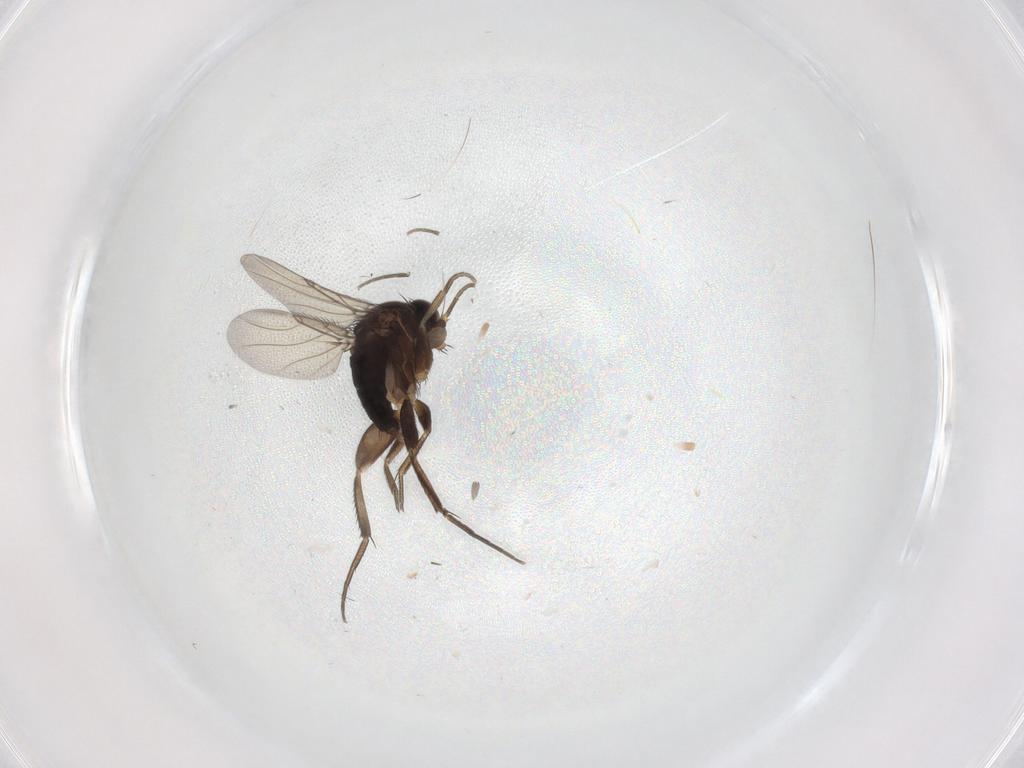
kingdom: Animalia
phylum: Arthropoda
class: Insecta
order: Diptera
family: Phoridae
